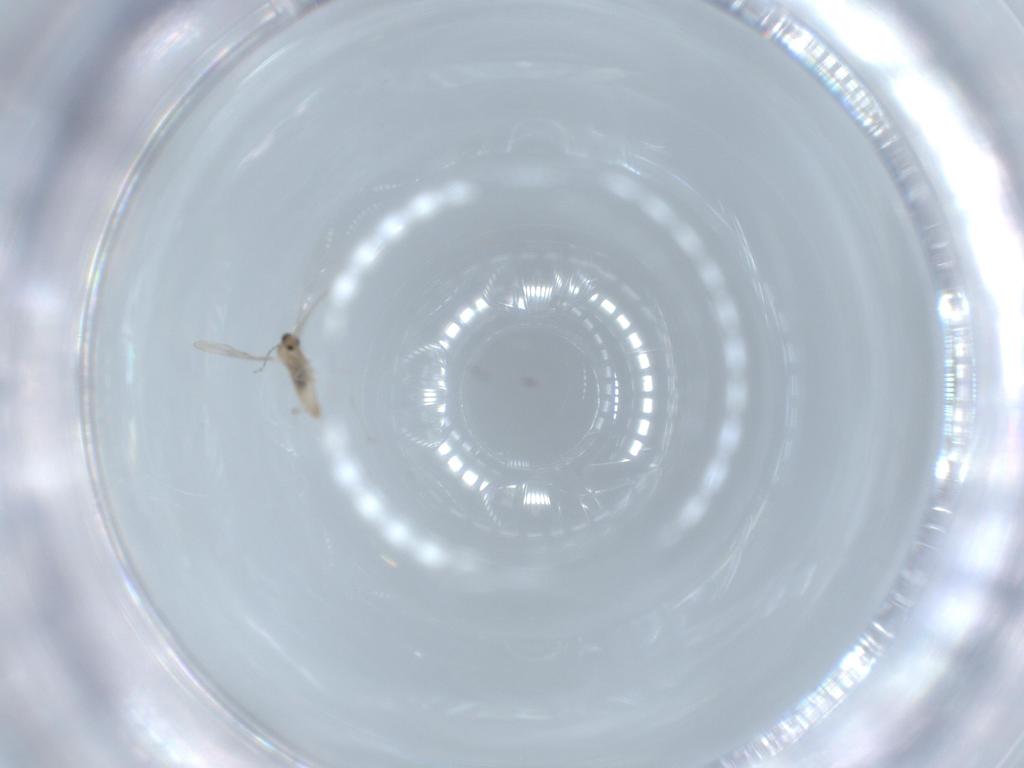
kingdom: Animalia
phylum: Arthropoda
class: Insecta
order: Diptera
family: Cecidomyiidae
